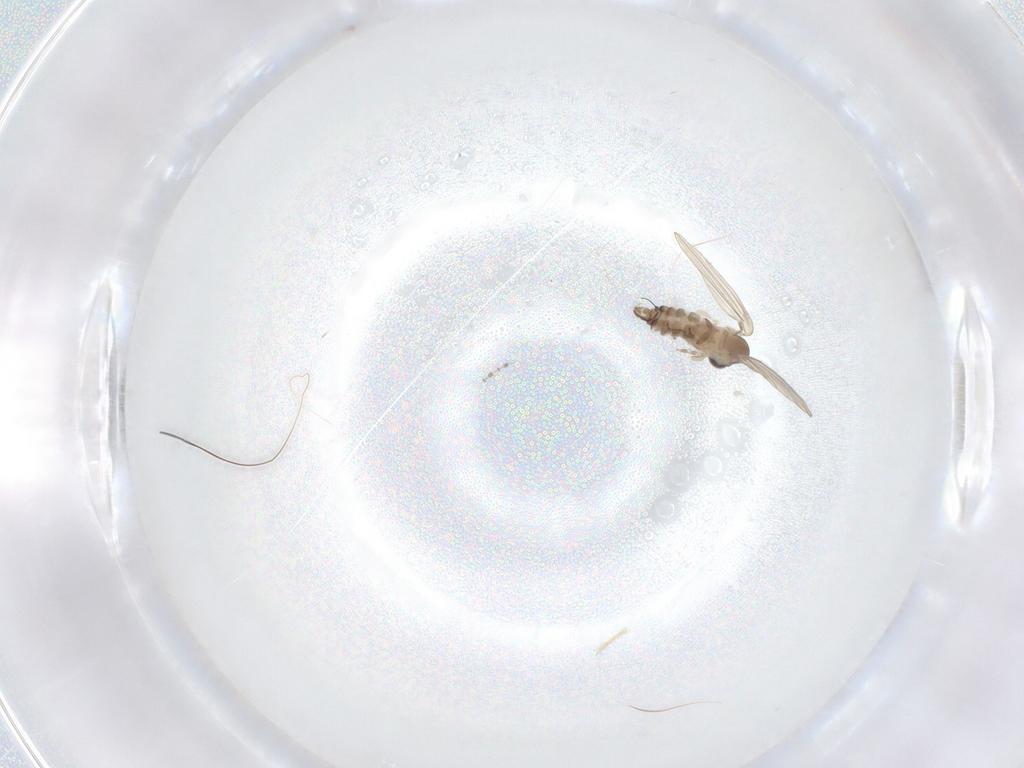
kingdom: Animalia
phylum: Arthropoda
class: Insecta
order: Diptera
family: Cecidomyiidae
